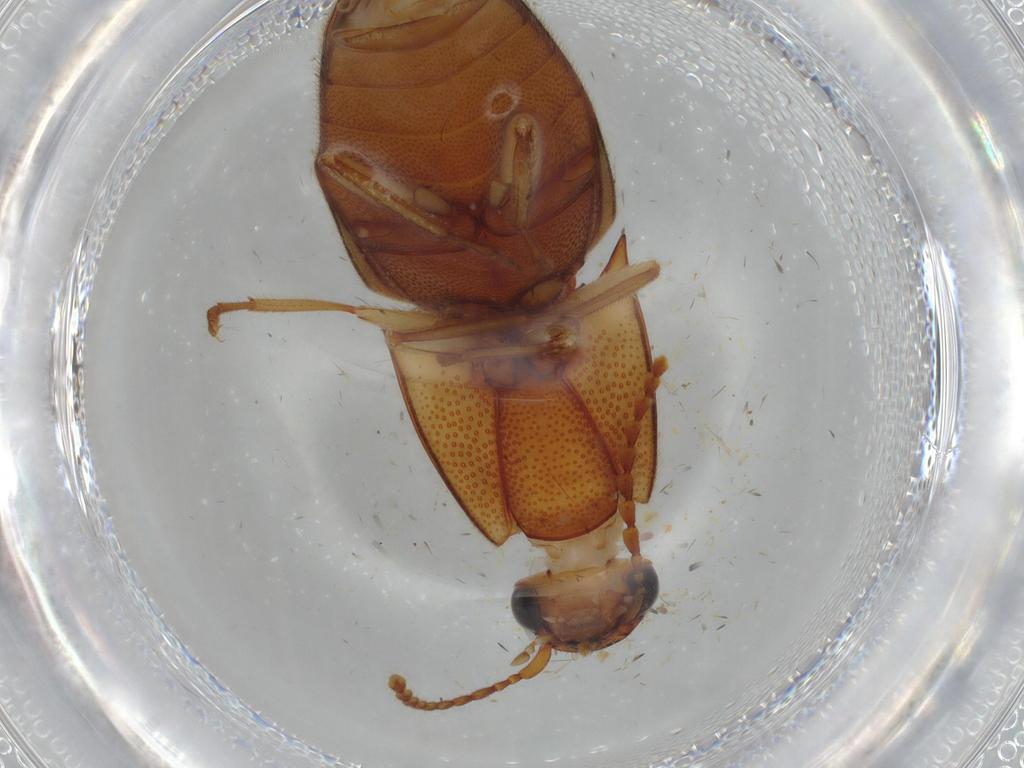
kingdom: Animalia
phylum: Arthropoda
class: Insecta
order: Coleoptera
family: Elateridae
